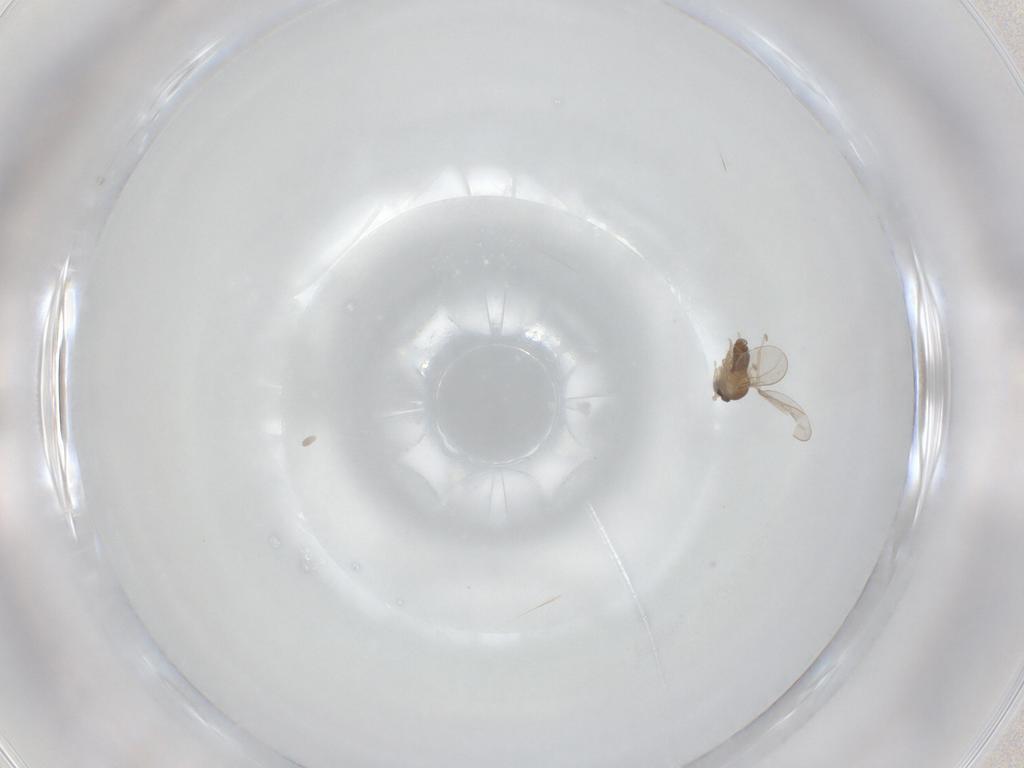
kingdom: Animalia
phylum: Arthropoda
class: Insecta
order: Diptera
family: Cecidomyiidae
